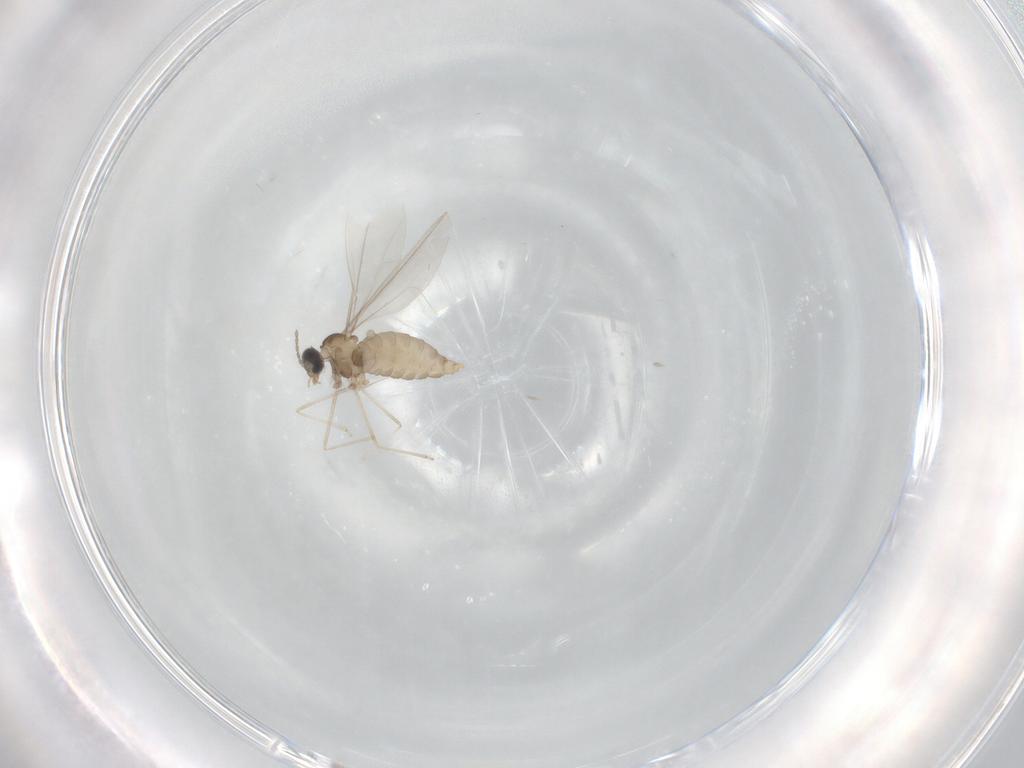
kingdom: Animalia
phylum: Arthropoda
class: Insecta
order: Diptera
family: Cecidomyiidae
